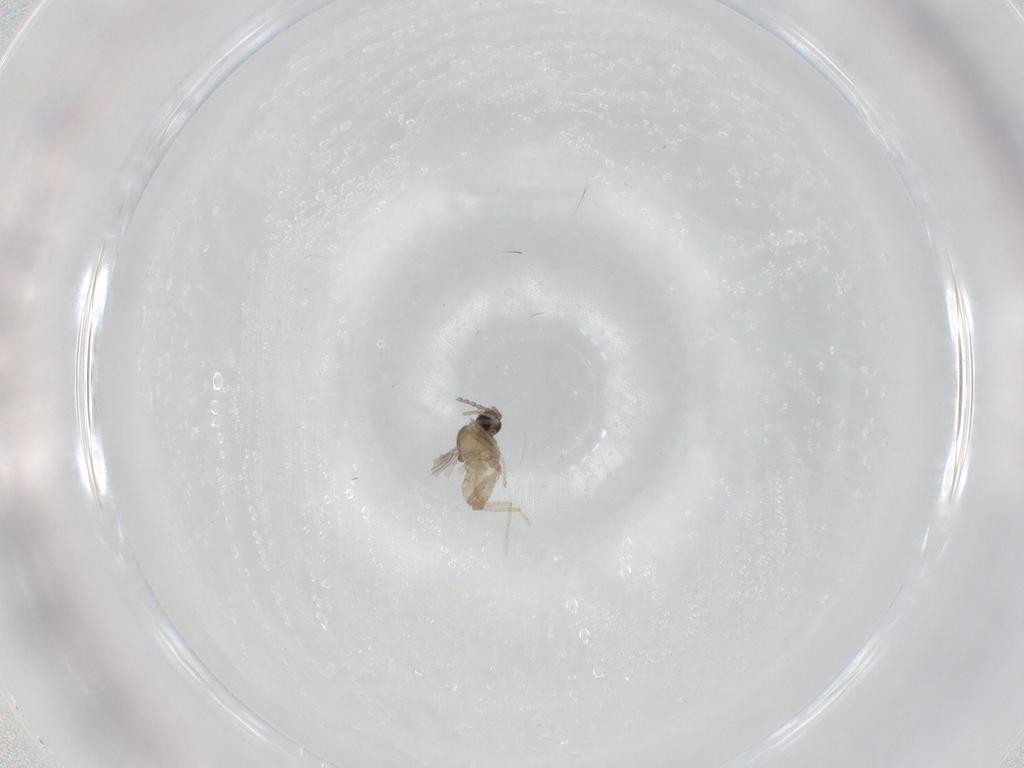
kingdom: Animalia
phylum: Arthropoda
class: Insecta
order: Diptera
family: Cecidomyiidae
